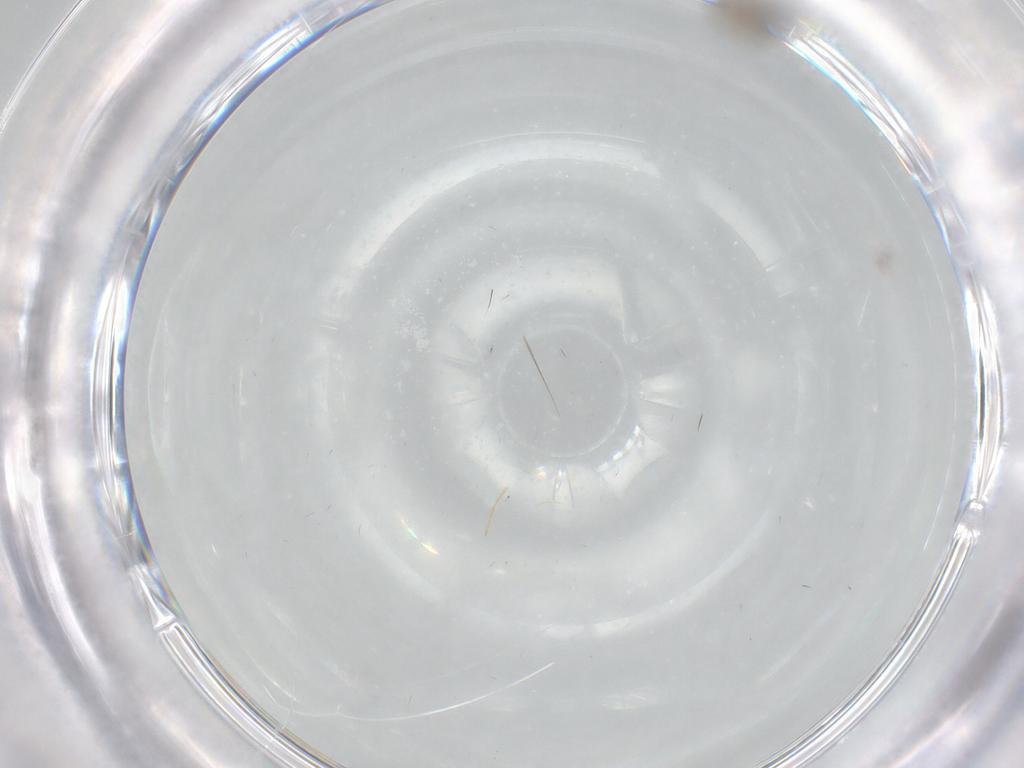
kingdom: Animalia
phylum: Arthropoda
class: Insecta
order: Diptera
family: Cecidomyiidae
